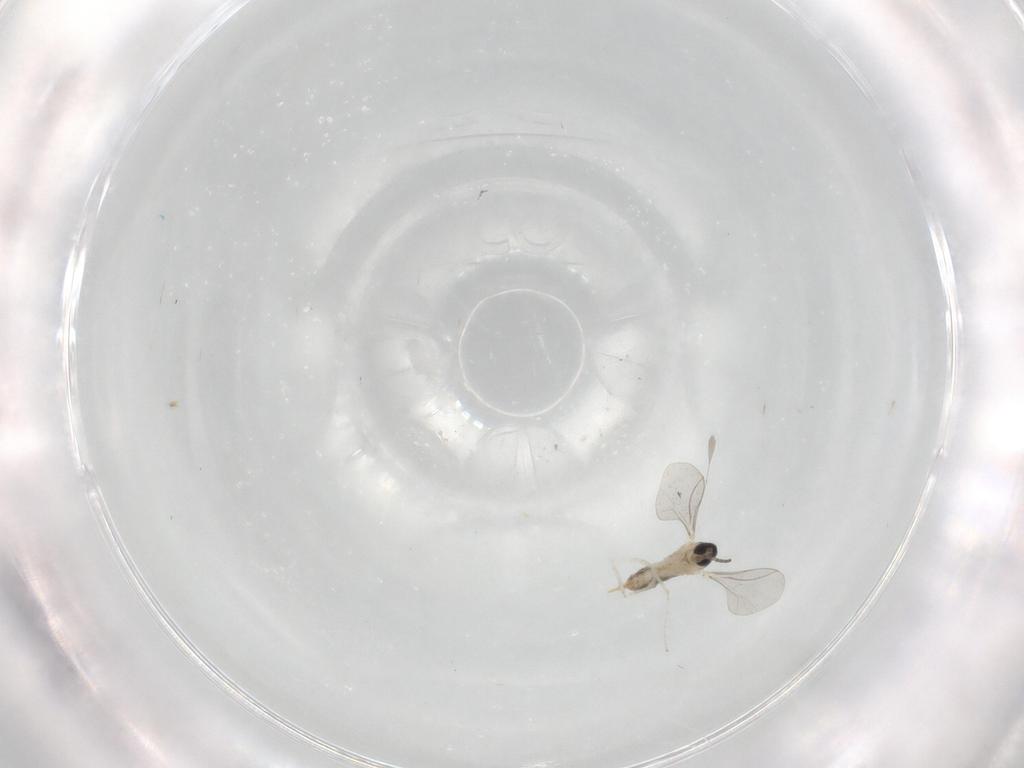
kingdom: Animalia
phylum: Arthropoda
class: Insecta
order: Diptera
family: Cecidomyiidae
